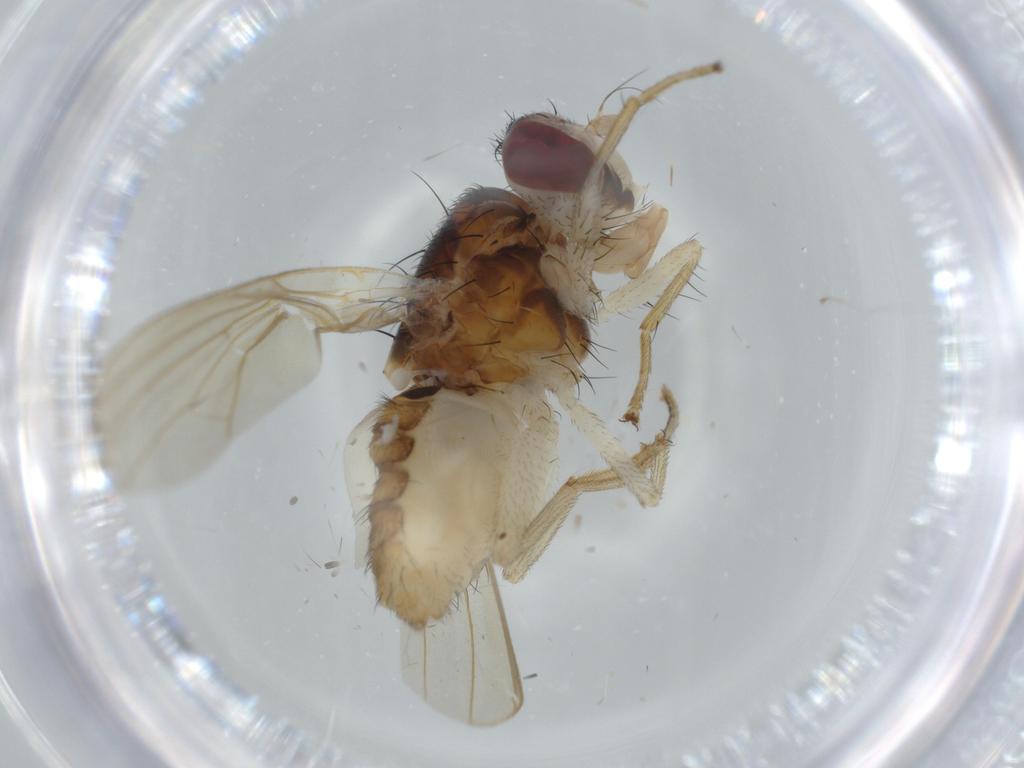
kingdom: Animalia
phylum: Arthropoda
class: Insecta
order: Diptera
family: Lauxaniidae
